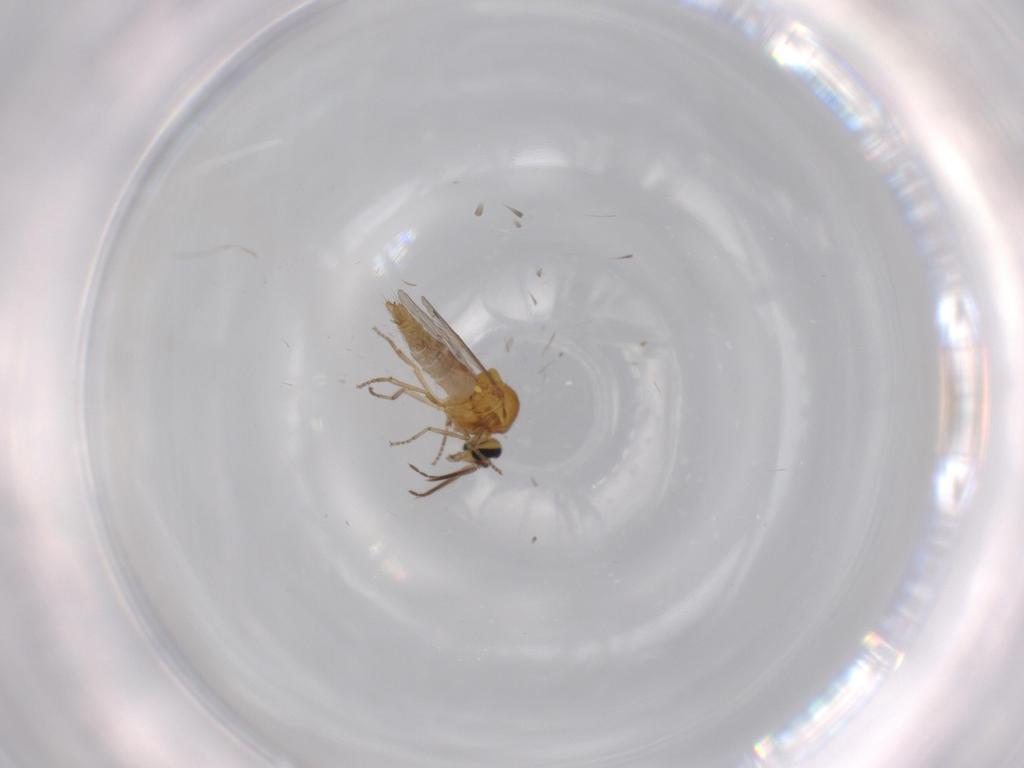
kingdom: Animalia
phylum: Arthropoda
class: Insecta
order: Diptera
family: Ceratopogonidae
